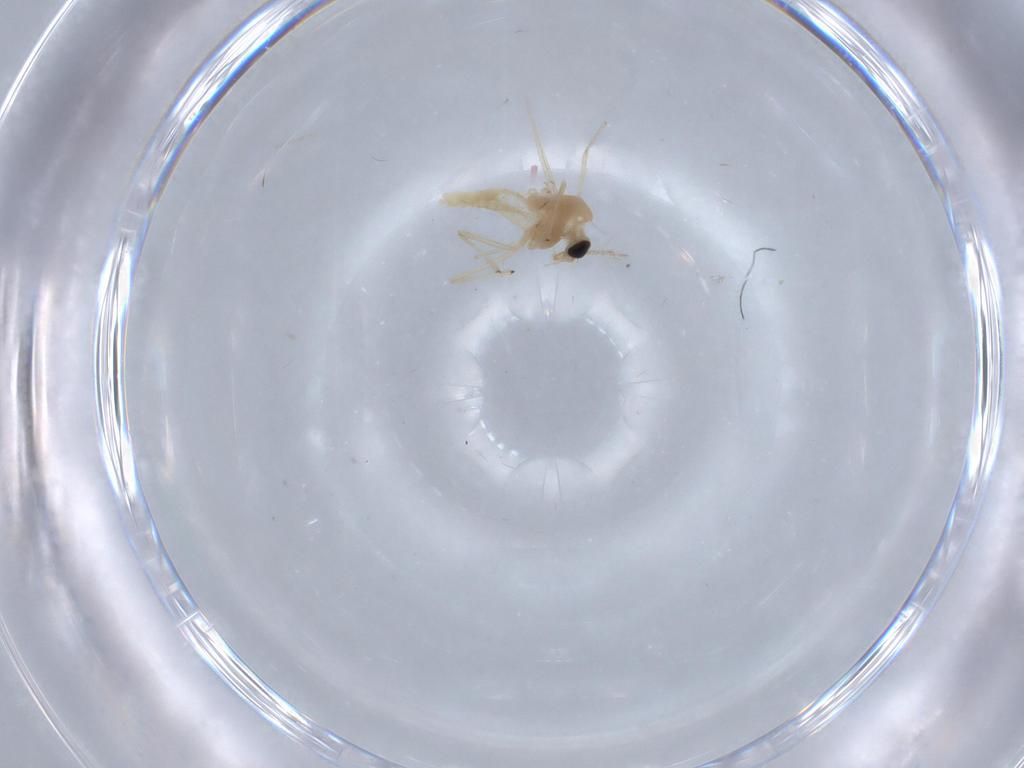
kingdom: Animalia
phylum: Arthropoda
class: Insecta
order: Diptera
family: Chironomidae
